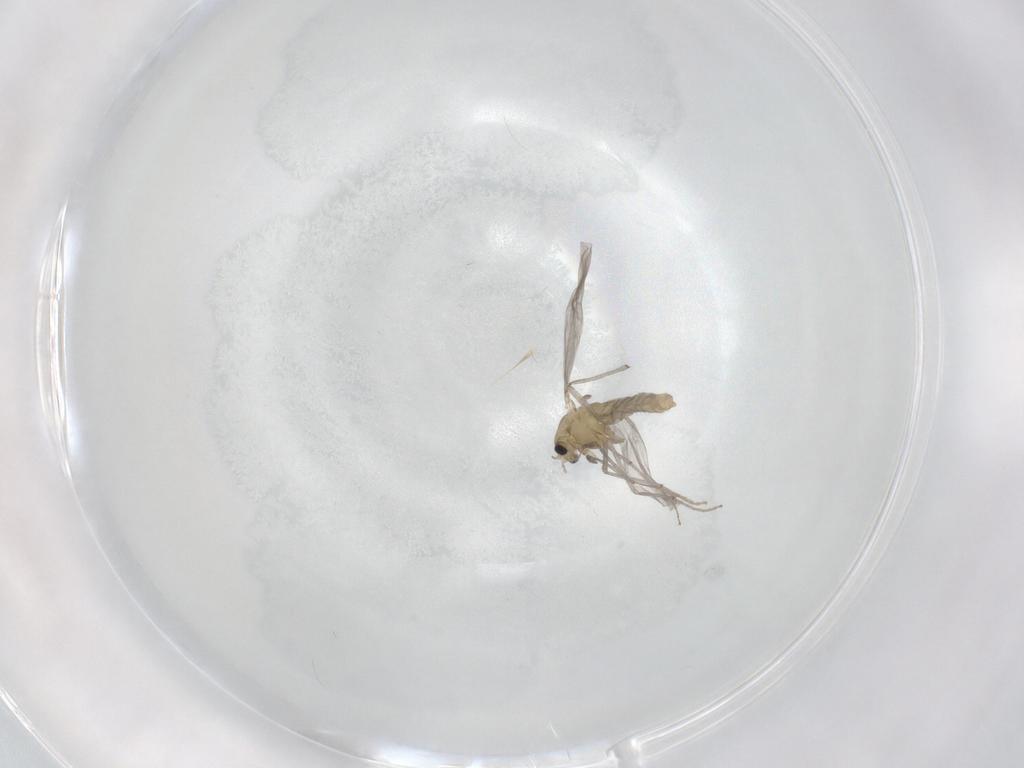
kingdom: Animalia
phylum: Arthropoda
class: Insecta
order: Diptera
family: Chironomidae
